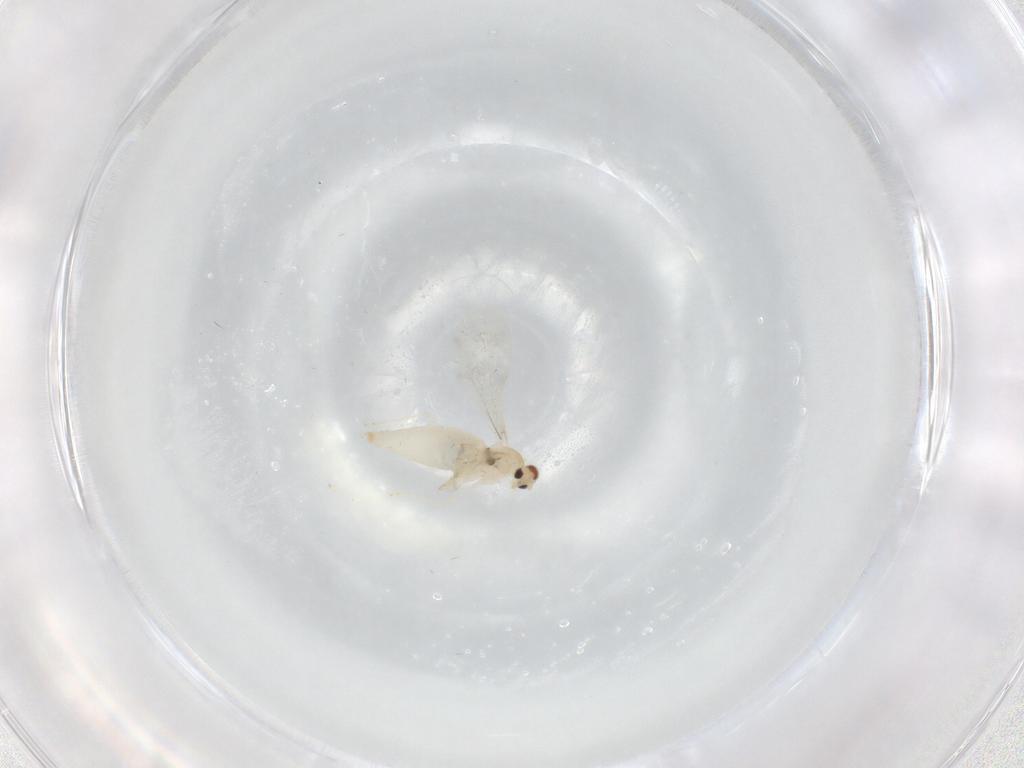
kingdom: Animalia
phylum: Arthropoda
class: Insecta
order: Diptera
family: Cecidomyiidae
